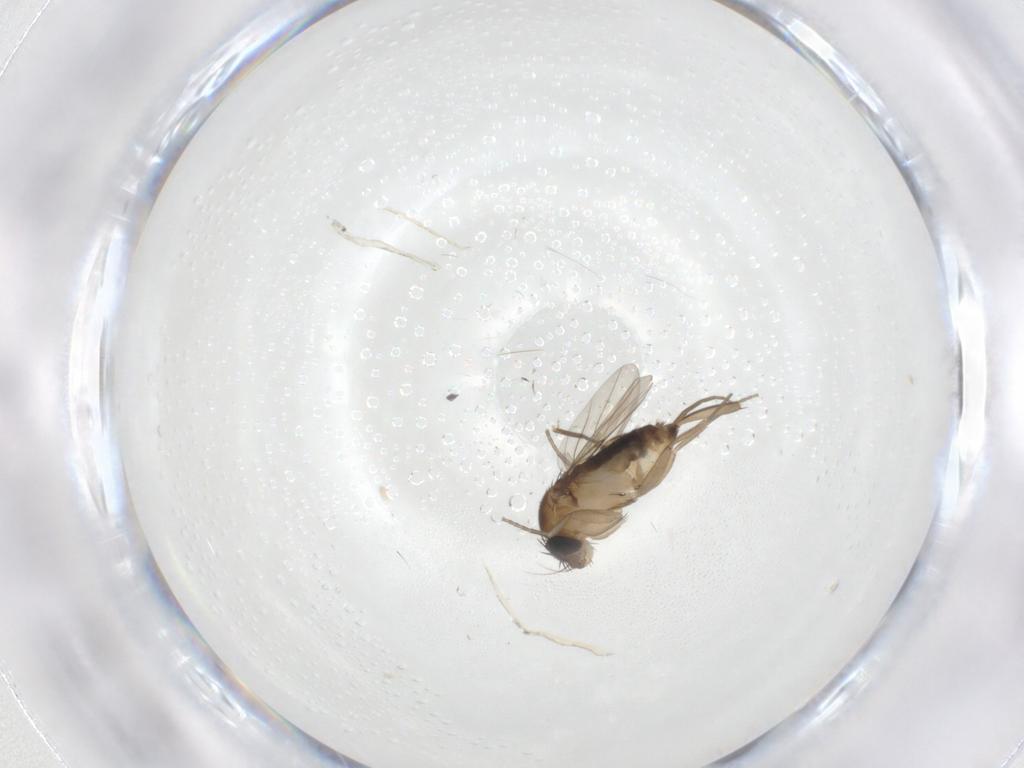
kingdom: Animalia
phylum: Arthropoda
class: Insecta
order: Diptera
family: Phoridae
